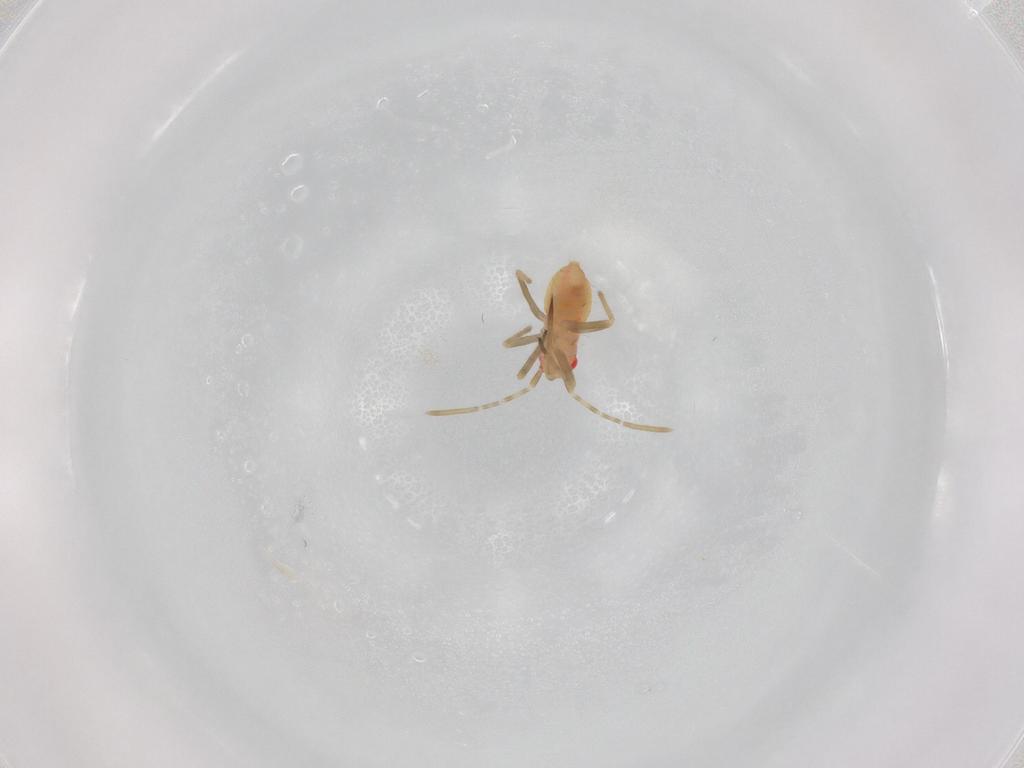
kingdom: Animalia
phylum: Arthropoda
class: Insecta
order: Hemiptera
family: Miridae
